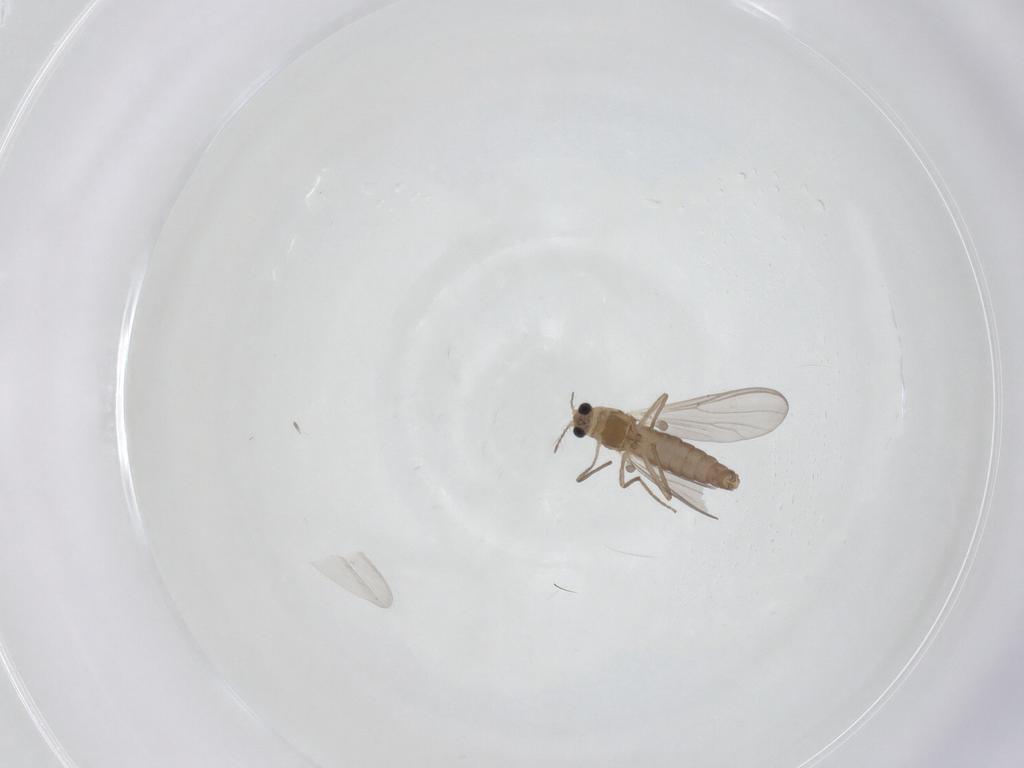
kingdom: Animalia
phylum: Arthropoda
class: Insecta
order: Diptera
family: Chironomidae
